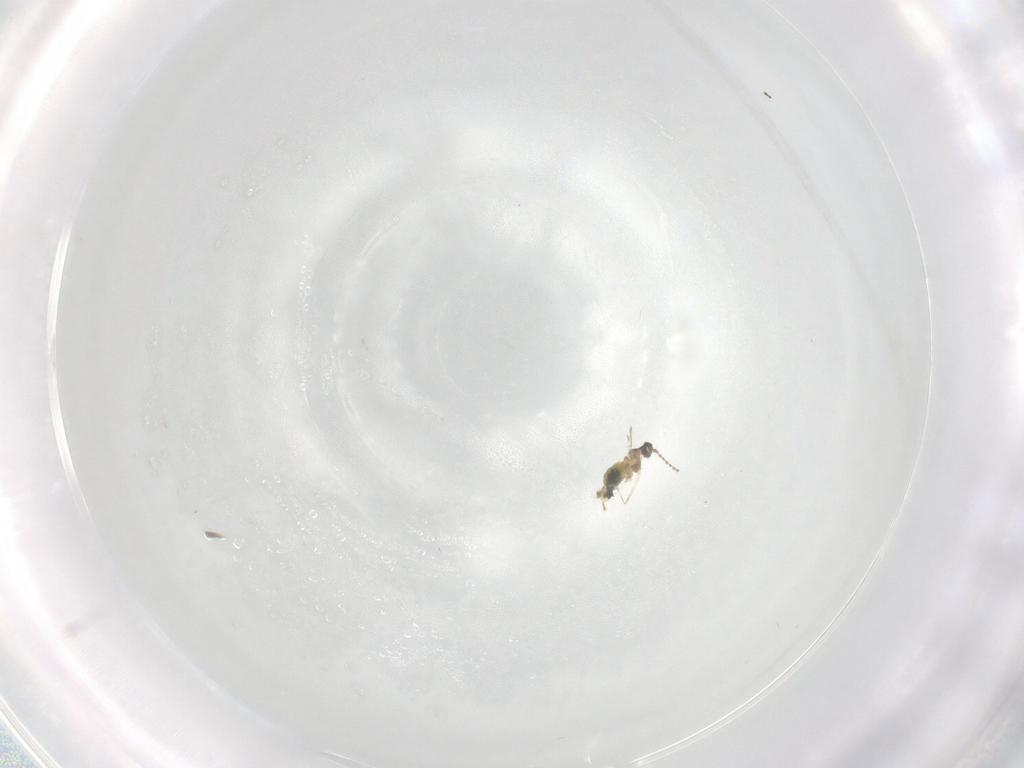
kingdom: Animalia
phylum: Arthropoda
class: Insecta
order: Diptera
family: Cecidomyiidae
